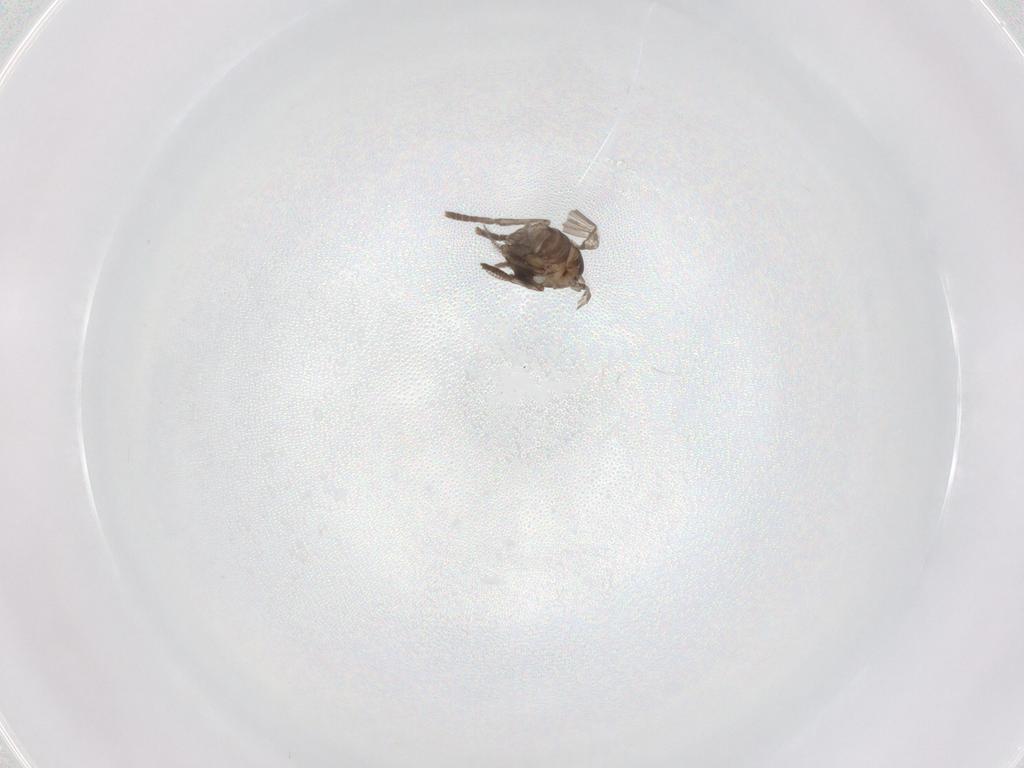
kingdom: Animalia
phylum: Arthropoda
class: Insecta
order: Diptera
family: Psychodidae
